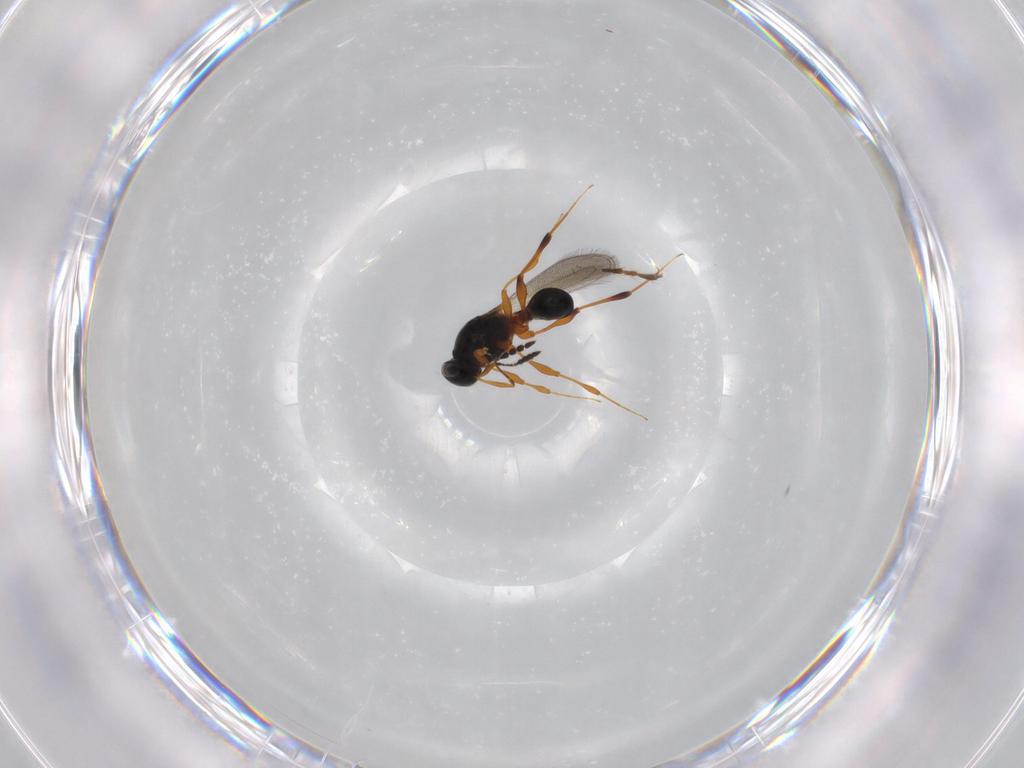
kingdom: Animalia
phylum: Arthropoda
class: Insecta
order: Hymenoptera
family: Diapriidae
